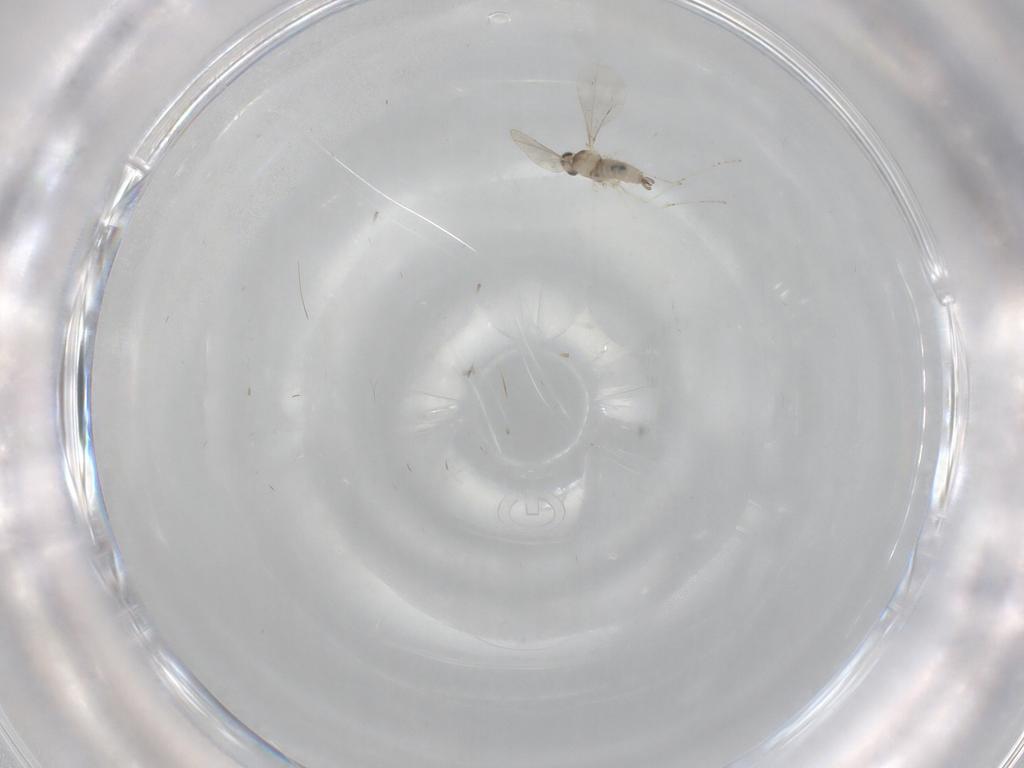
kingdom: Animalia
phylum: Arthropoda
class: Insecta
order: Diptera
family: Cecidomyiidae
